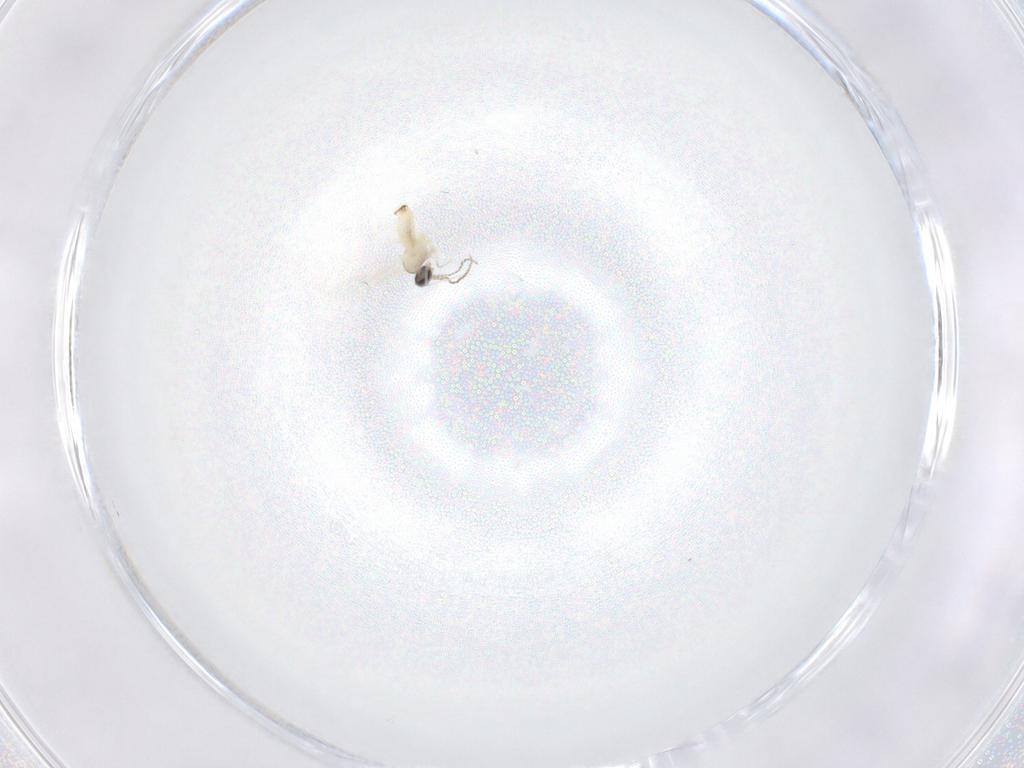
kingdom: Animalia
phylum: Arthropoda
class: Insecta
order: Diptera
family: Cecidomyiidae
